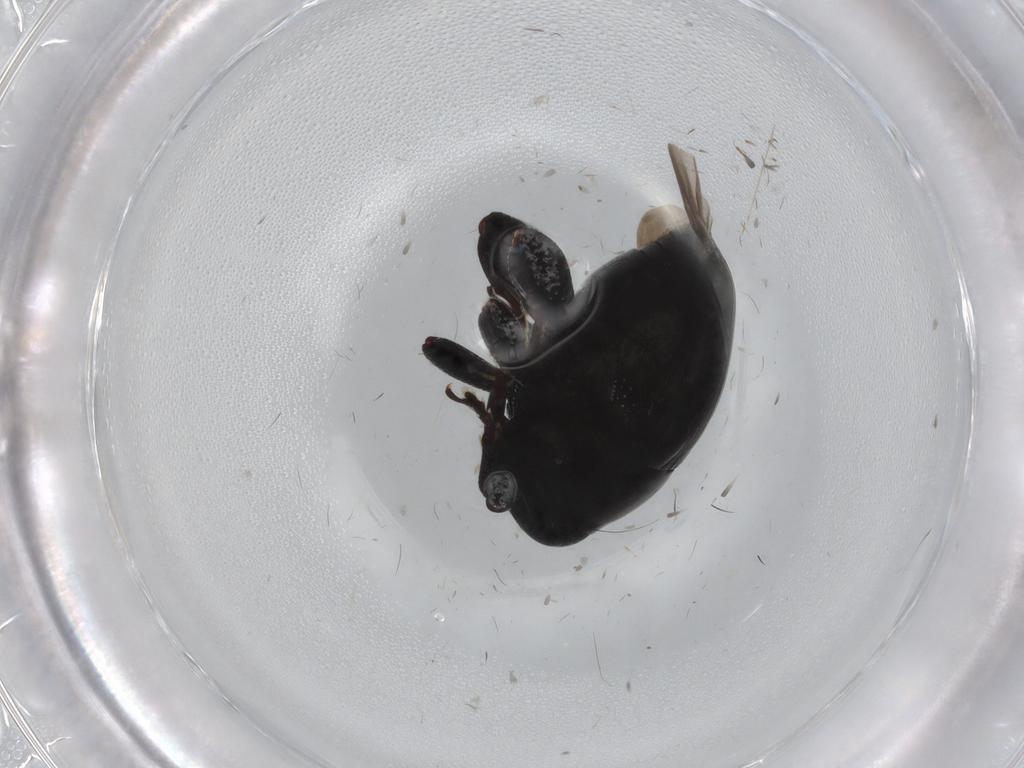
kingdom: Animalia
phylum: Arthropoda
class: Insecta
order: Coleoptera
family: Curculionidae
